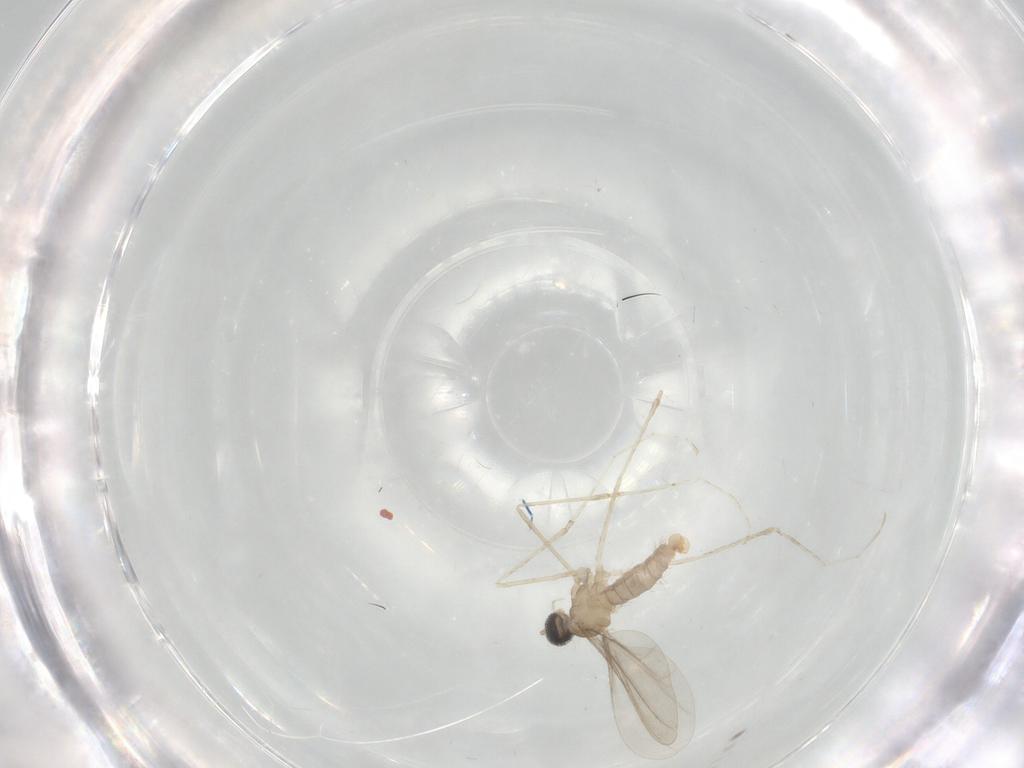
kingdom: Animalia
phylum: Arthropoda
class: Insecta
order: Diptera
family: Cecidomyiidae
